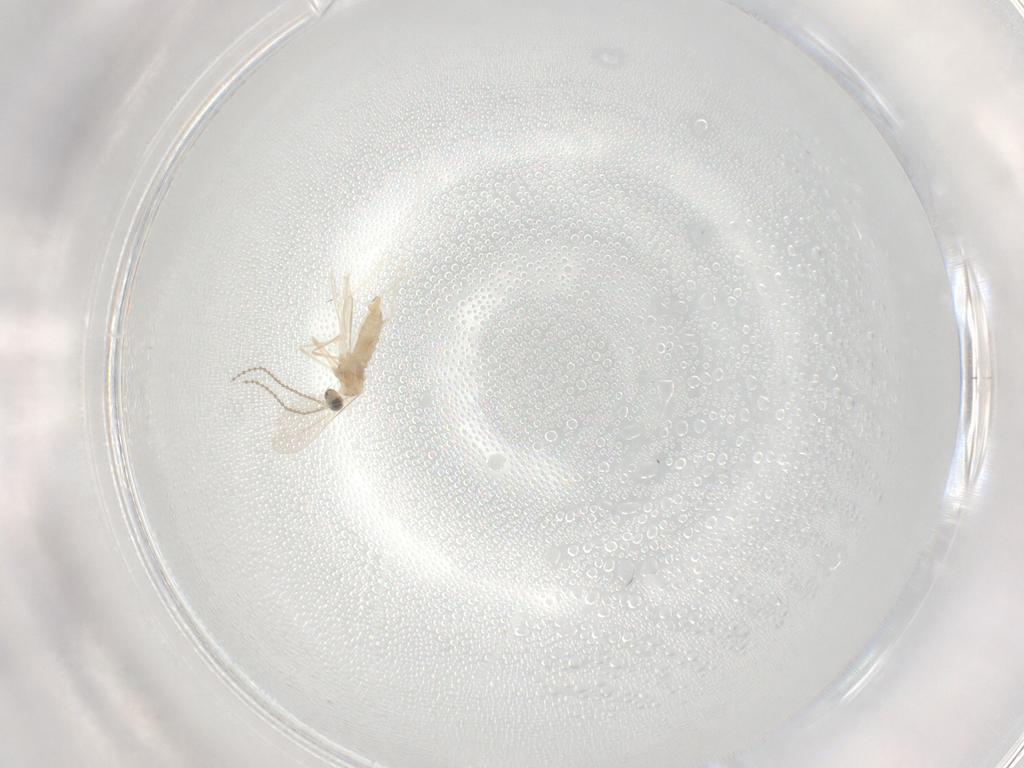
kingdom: Animalia
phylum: Arthropoda
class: Insecta
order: Diptera
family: Cecidomyiidae
